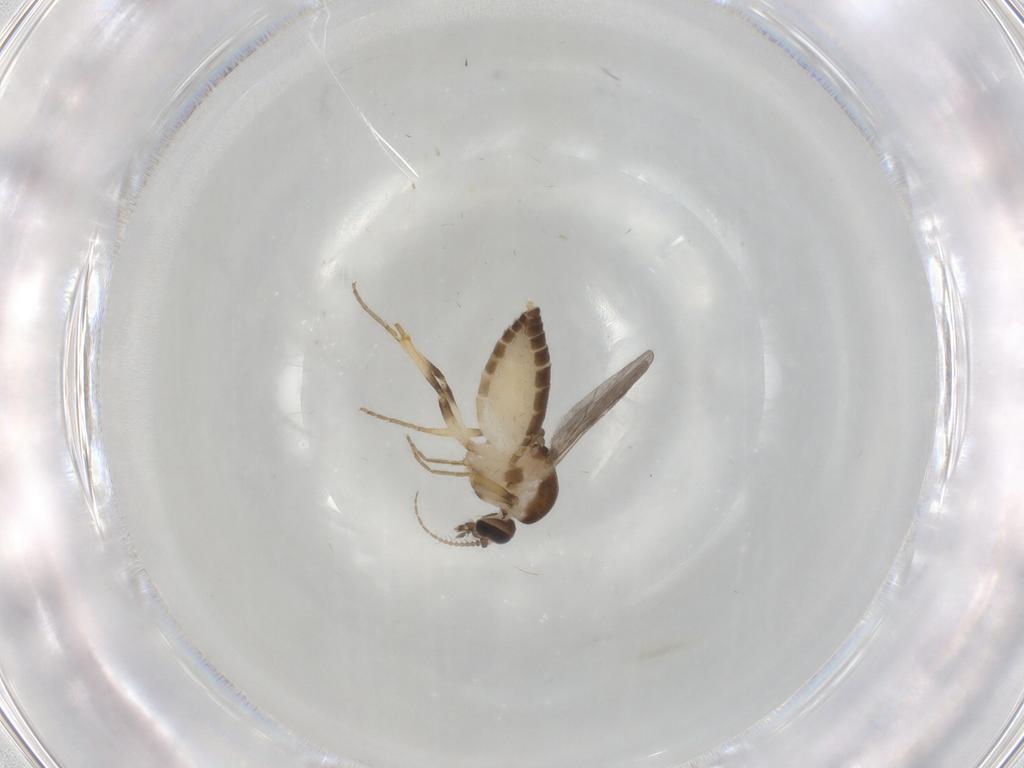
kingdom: Animalia
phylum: Arthropoda
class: Insecta
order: Diptera
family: Ceratopogonidae
